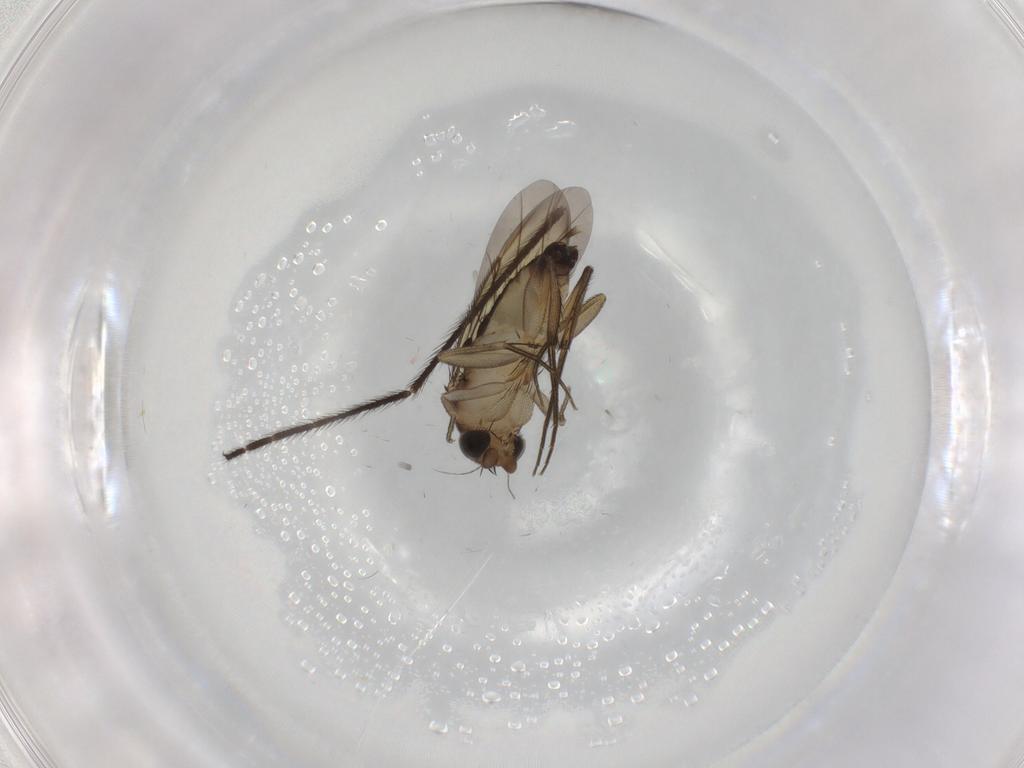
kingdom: Animalia
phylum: Arthropoda
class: Insecta
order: Diptera
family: Phoridae
